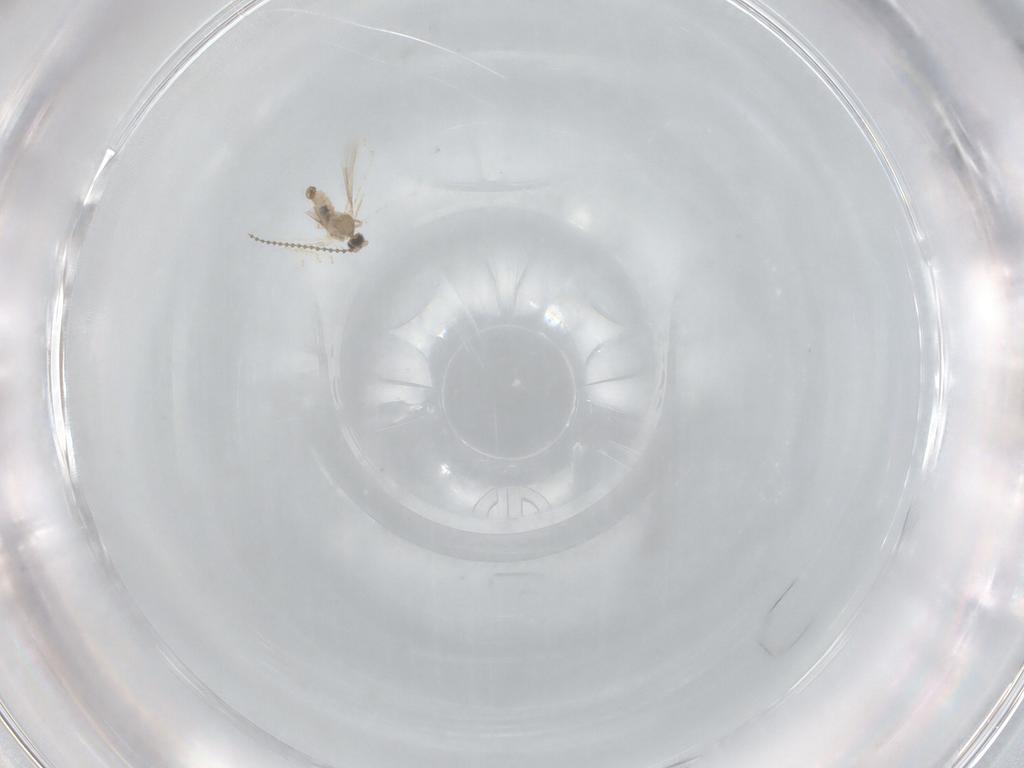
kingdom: Animalia
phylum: Arthropoda
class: Insecta
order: Diptera
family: Cecidomyiidae
